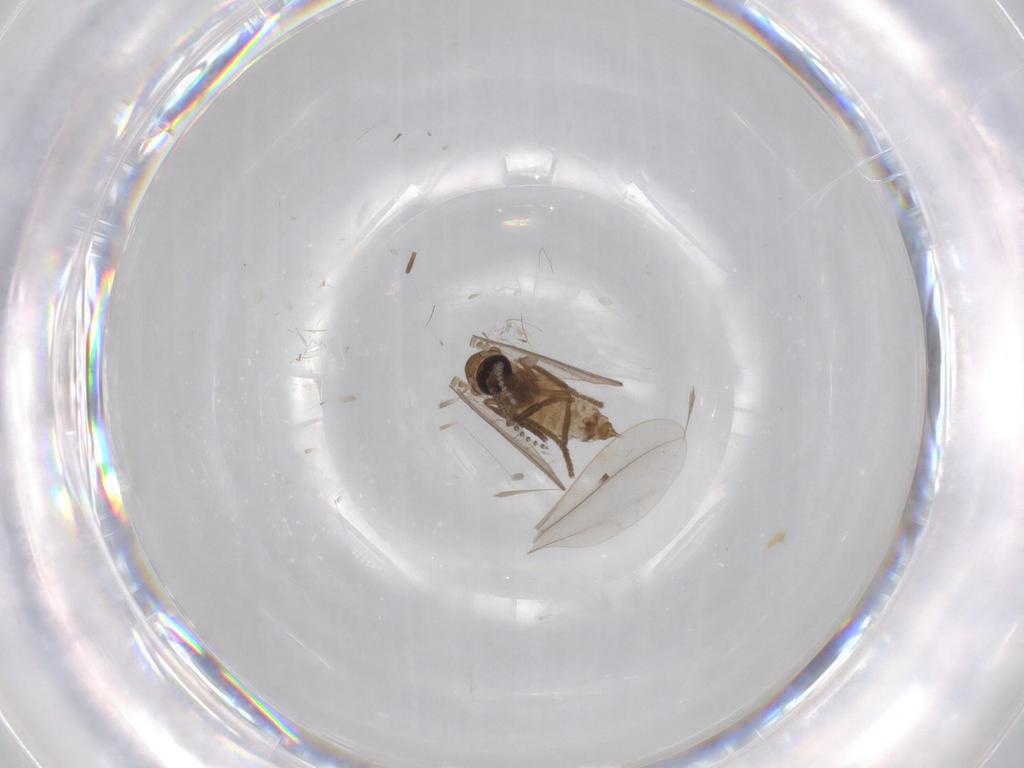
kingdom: Animalia
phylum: Arthropoda
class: Insecta
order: Diptera
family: Cecidomyiidae
